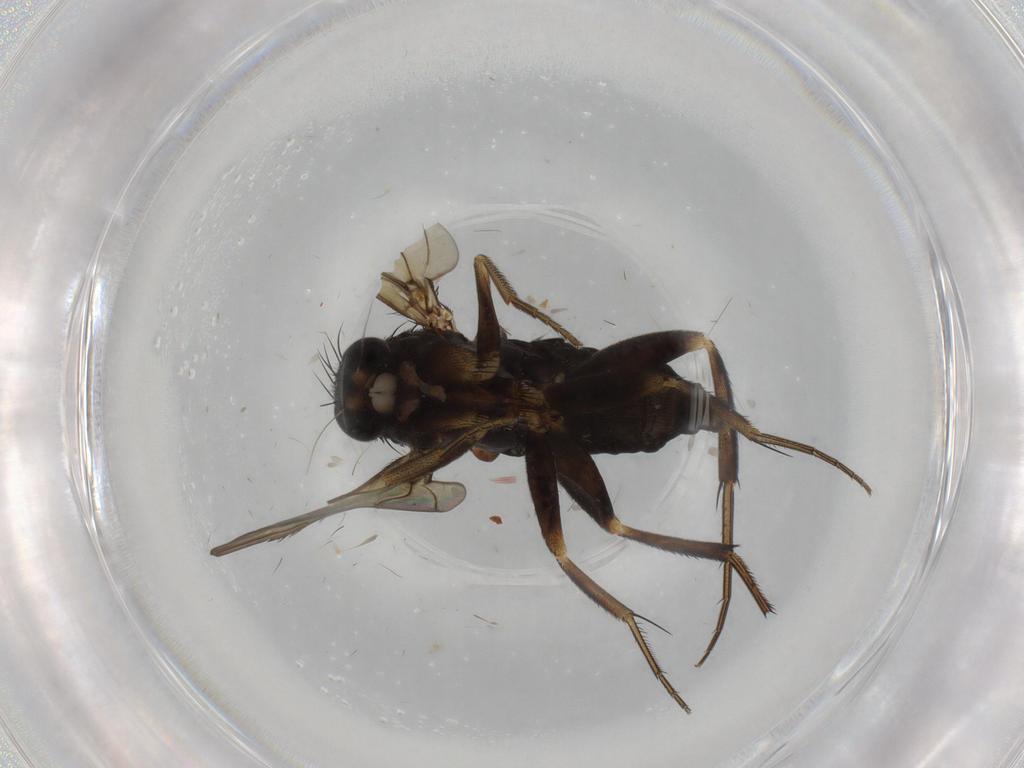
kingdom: Animalia
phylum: Arthropoda
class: Insecta
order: Diptera
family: Phoridae
